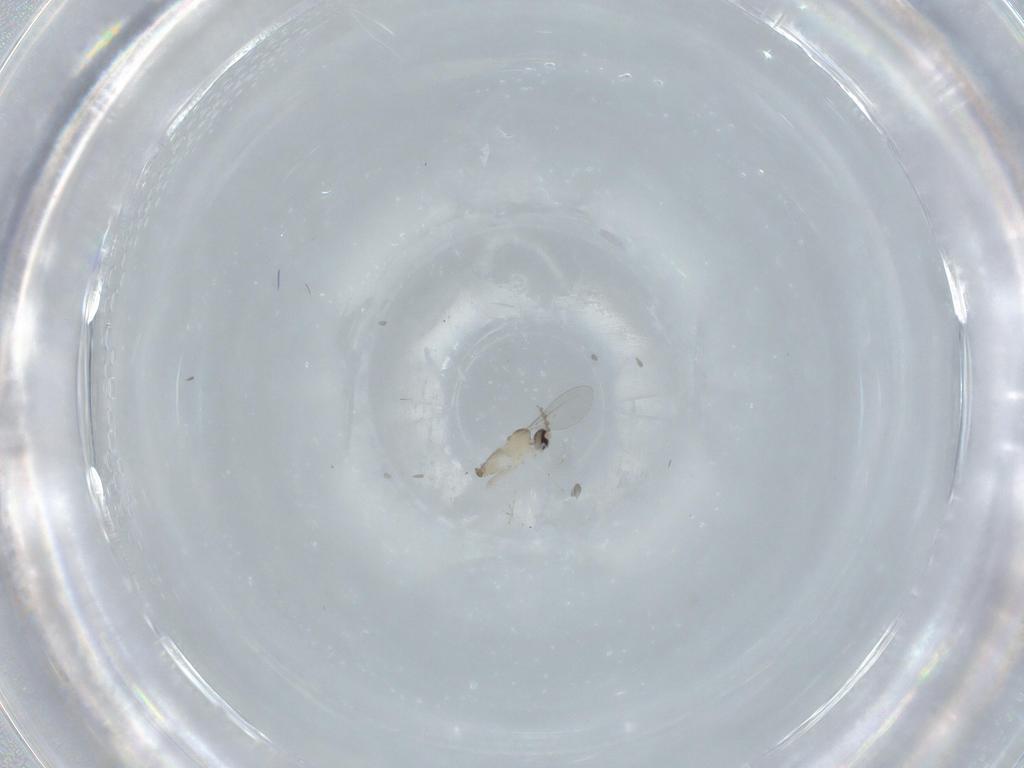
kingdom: Animalia
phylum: Arthropoda
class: Insecta
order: Diptera
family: Cecidomyiidae
